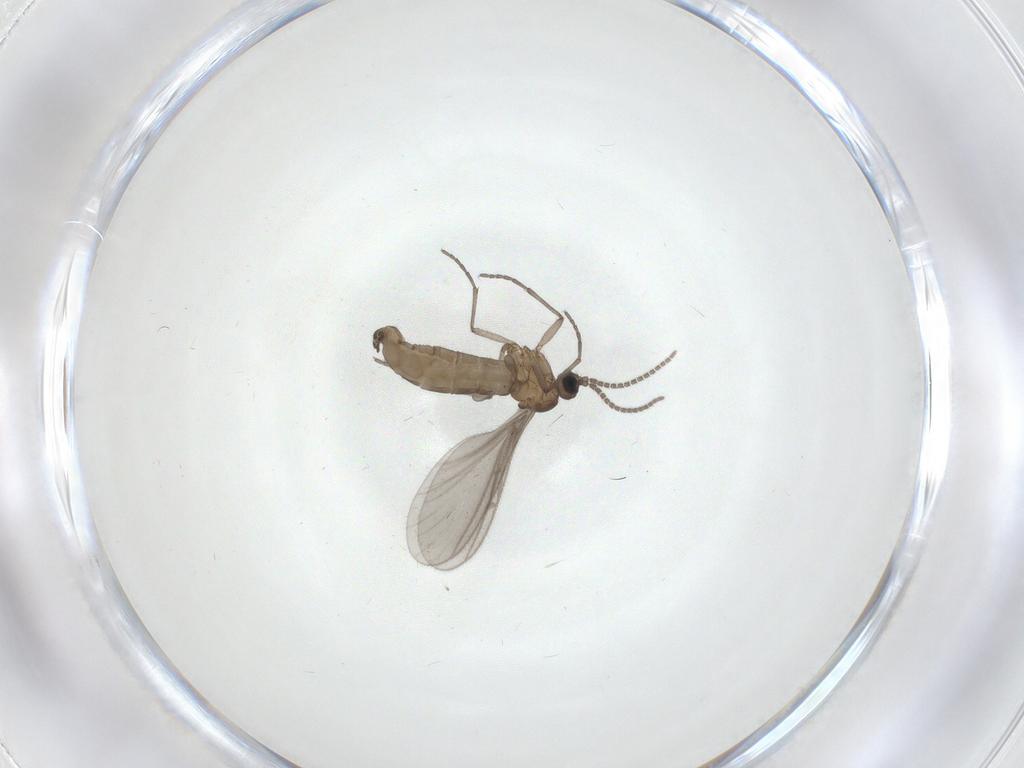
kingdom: Animalia
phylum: Arthropoda
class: Insecta
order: Diptera
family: Sciaridae
